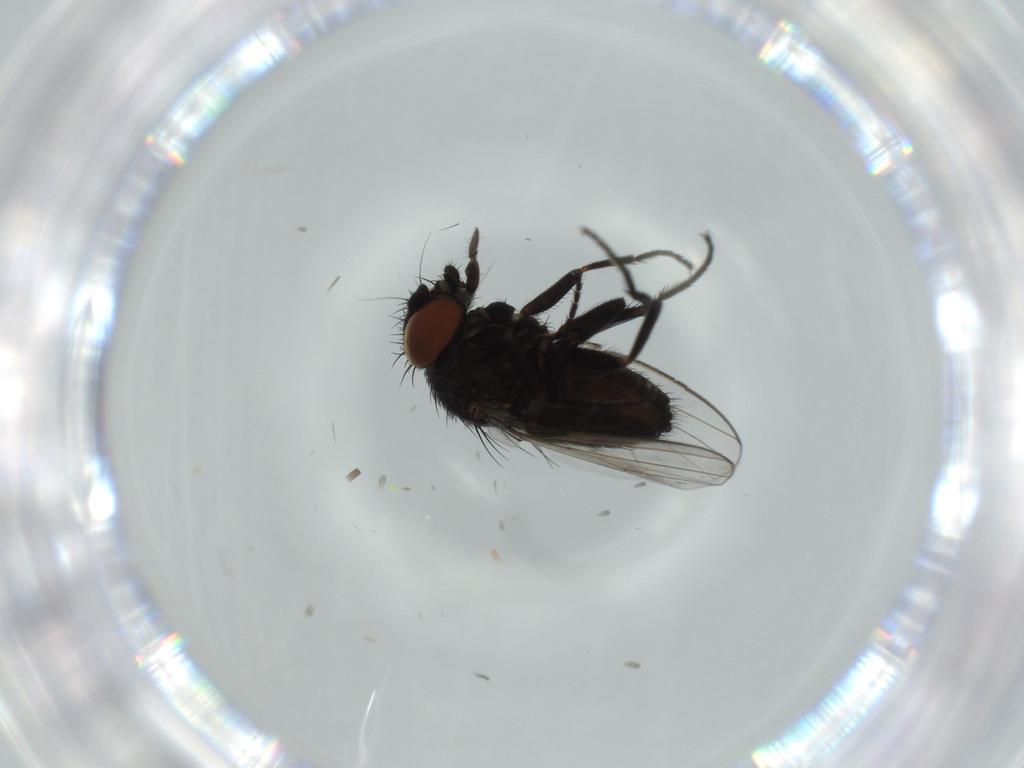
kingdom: Animalia
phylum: Arthropoda
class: Insecta
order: Diptera
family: Milichiidae
